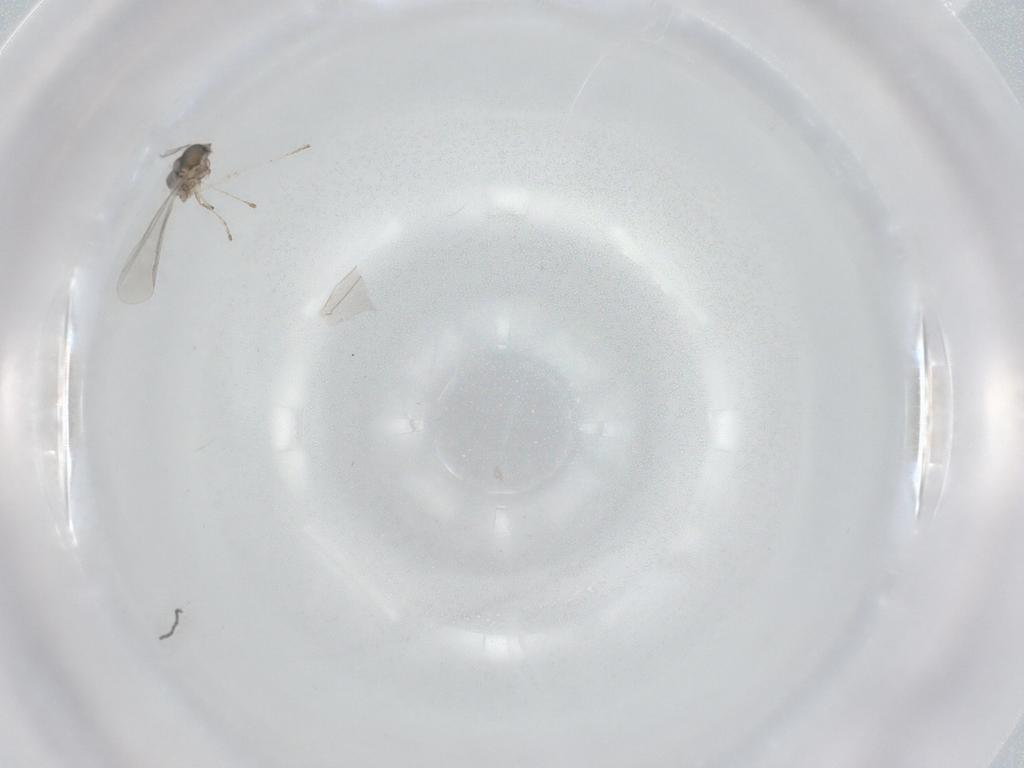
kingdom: Animalia
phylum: Arthropoda
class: Insecta
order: Diptera
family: Cecidomyiidae
